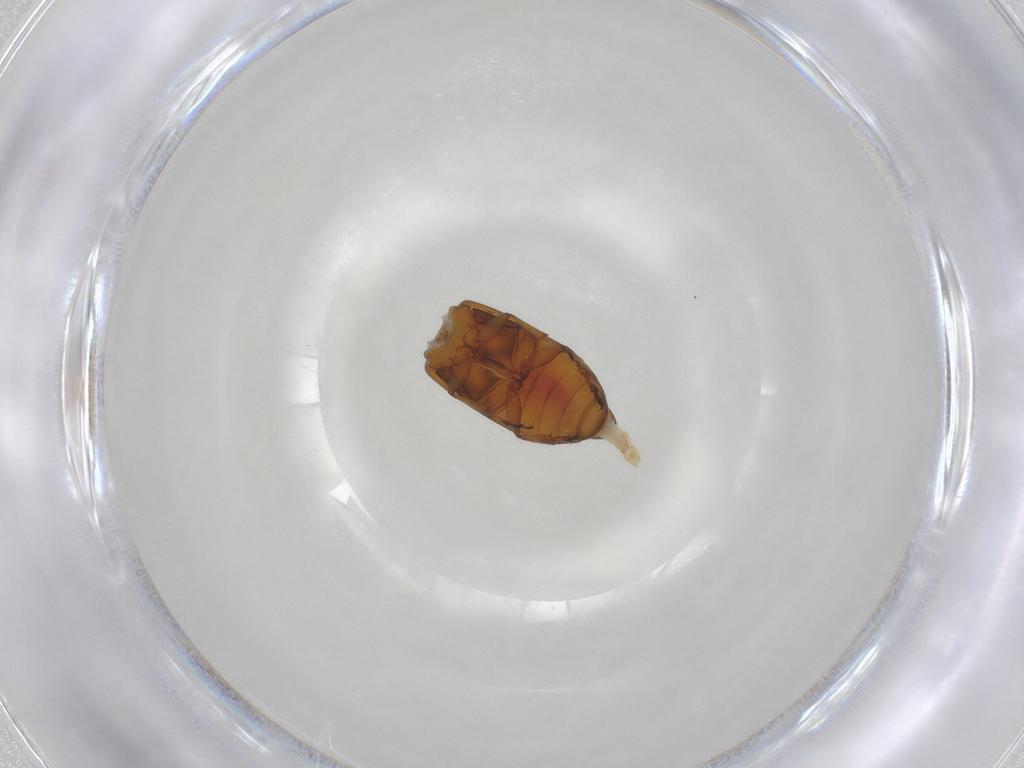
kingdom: Animalia
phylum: Arthropoda
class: Insecta
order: Coleoptera
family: Scraptiidae
